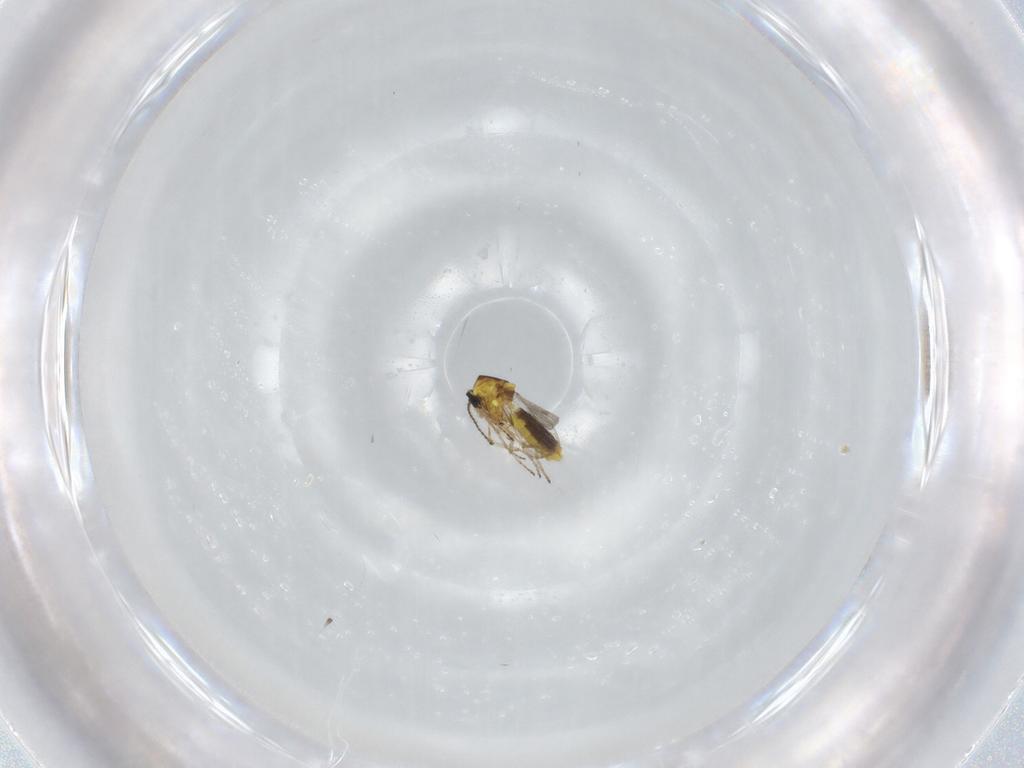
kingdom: Animalia
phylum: Arthropoda
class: Insecta
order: Diptera
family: Ceratopogonidae
